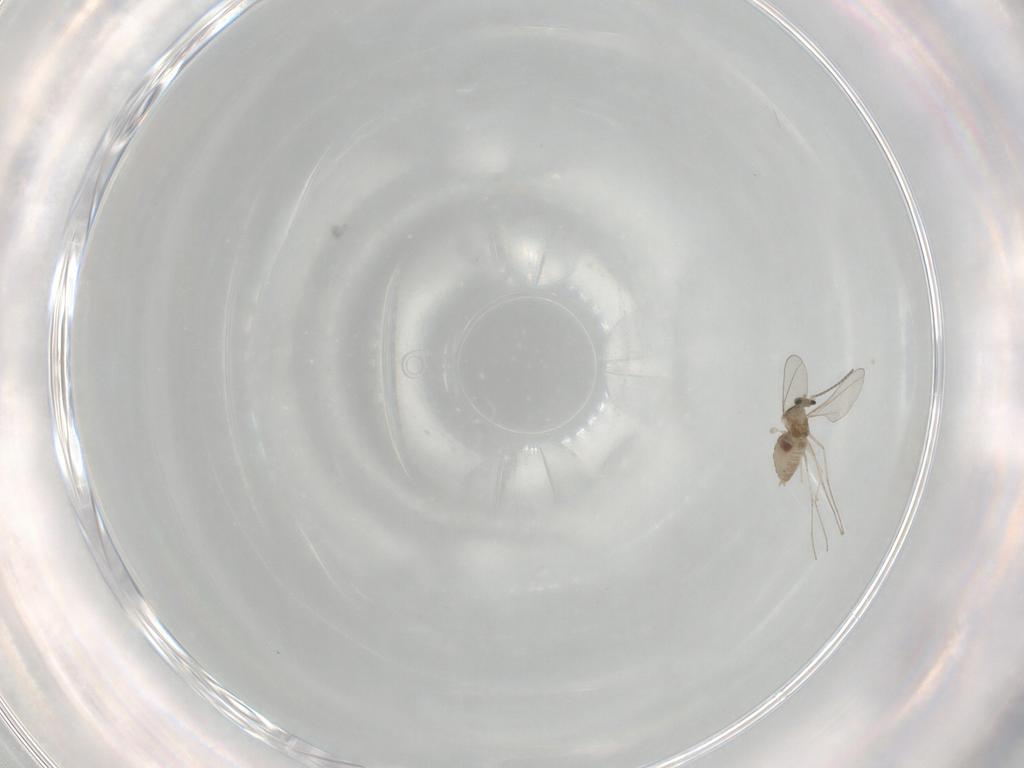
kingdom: Animalia
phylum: Arthropoda
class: Insecta
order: Diptera
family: Cecidomyiidae
